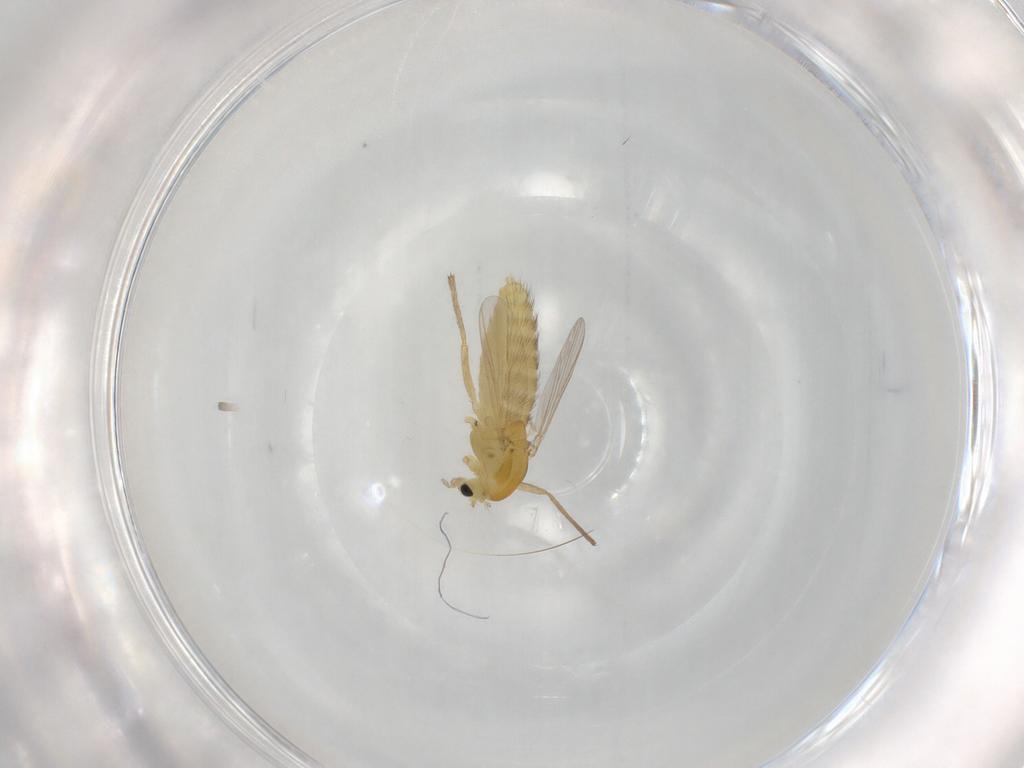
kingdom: Animalia
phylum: Arthropoda
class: Insecta
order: Diptera
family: Chironomidae
